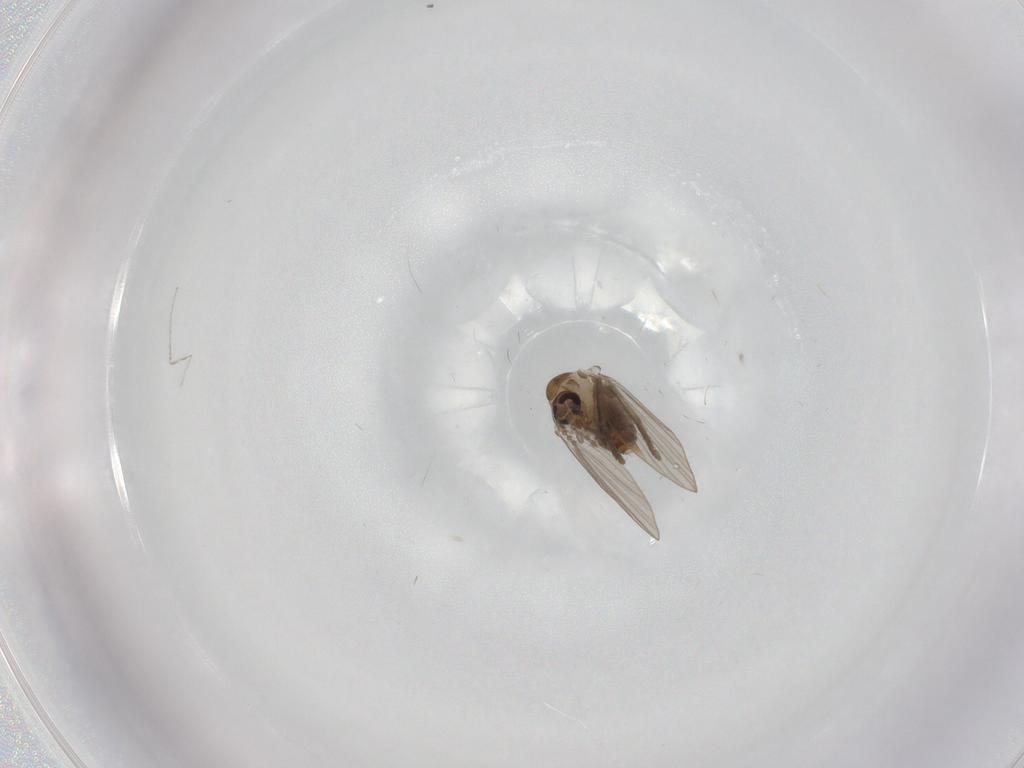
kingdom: Animalia
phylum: Arthropoda
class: Insecta
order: Diptera
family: Psychodidae
